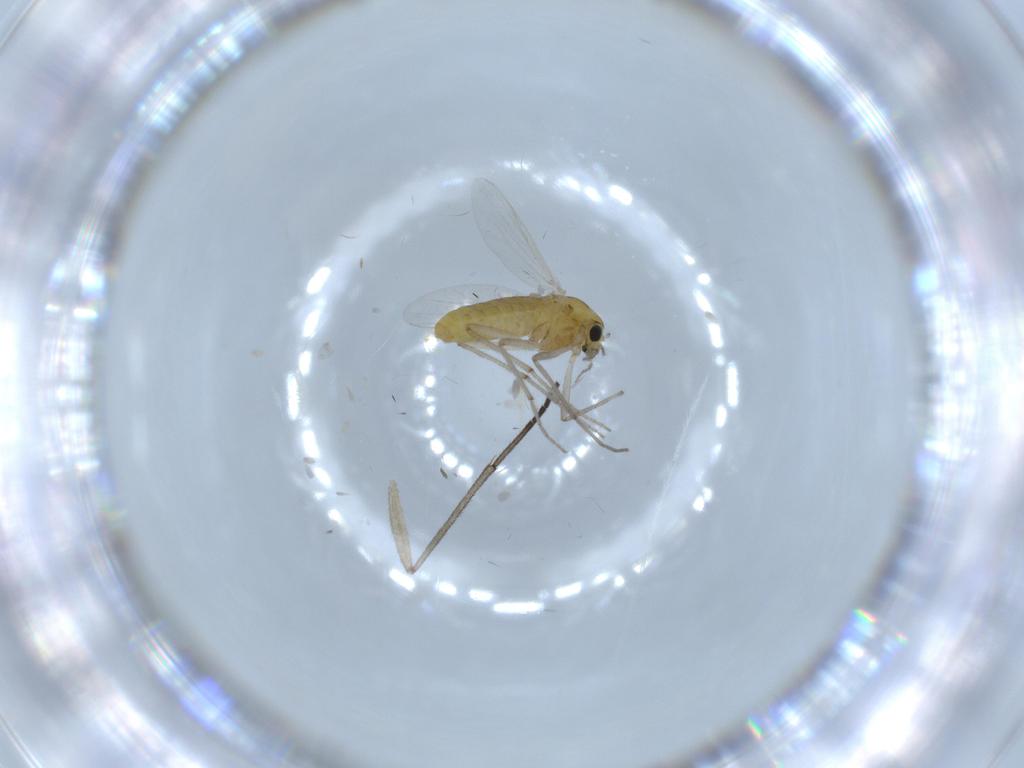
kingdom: Animalia
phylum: Arthropoda
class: Insecta
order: Diptera
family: Chironomidae
